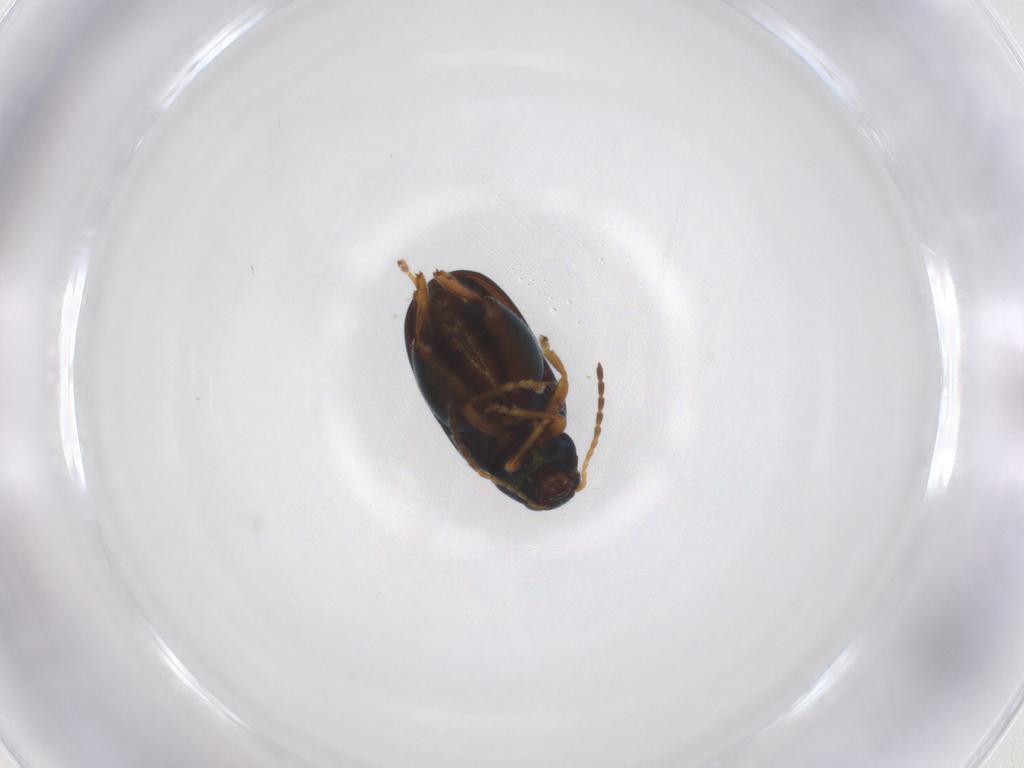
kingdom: Animalia
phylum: Arthropoda
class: Insecta
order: Coleoptera
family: Chrysomelidae
